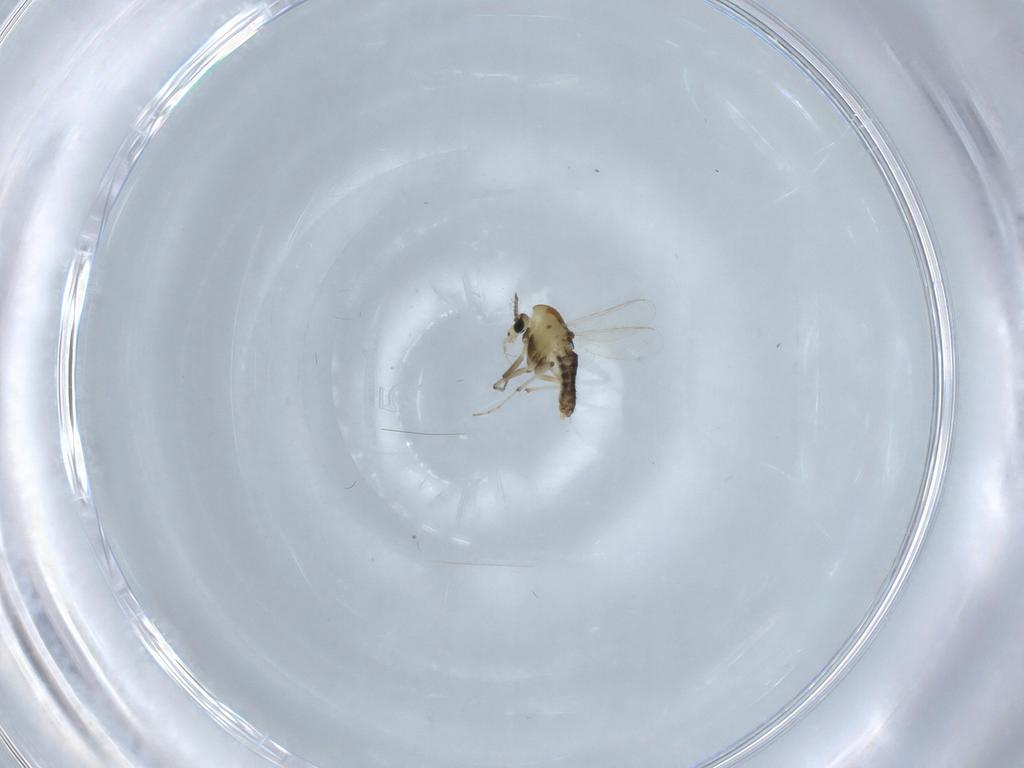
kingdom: Animalia
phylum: Arthropoda
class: Insecta
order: Diptera
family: Chironomidae
